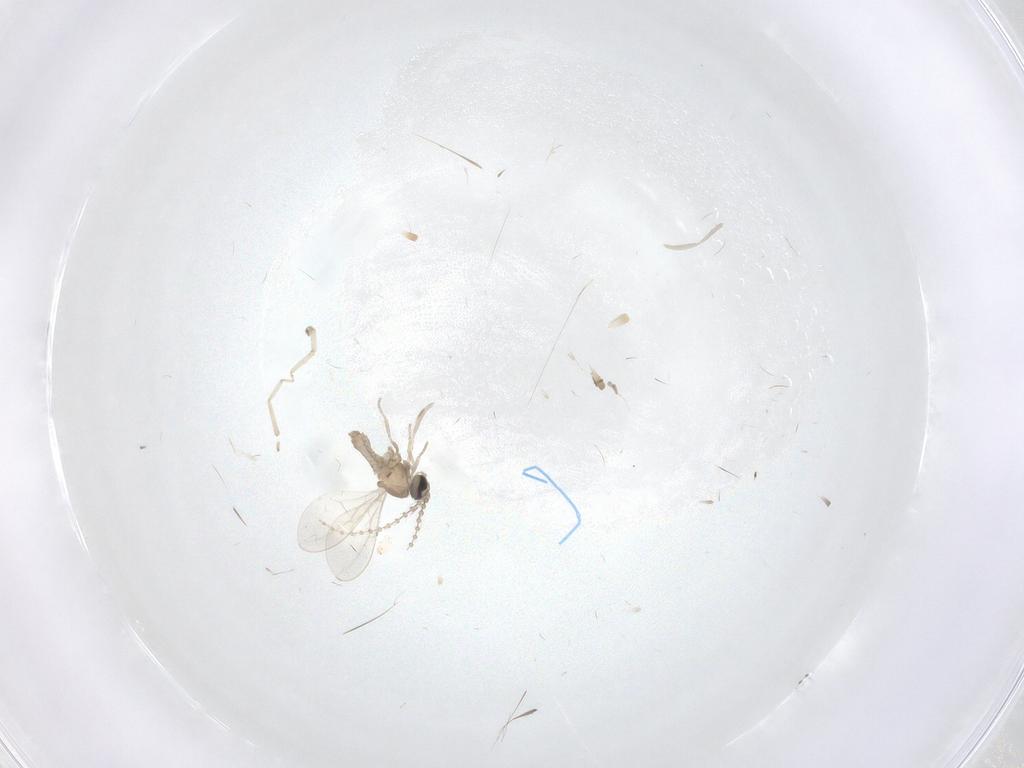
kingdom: Animalia
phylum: Arthropoda
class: Insecta
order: Diptera
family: Cecidomyiidae
